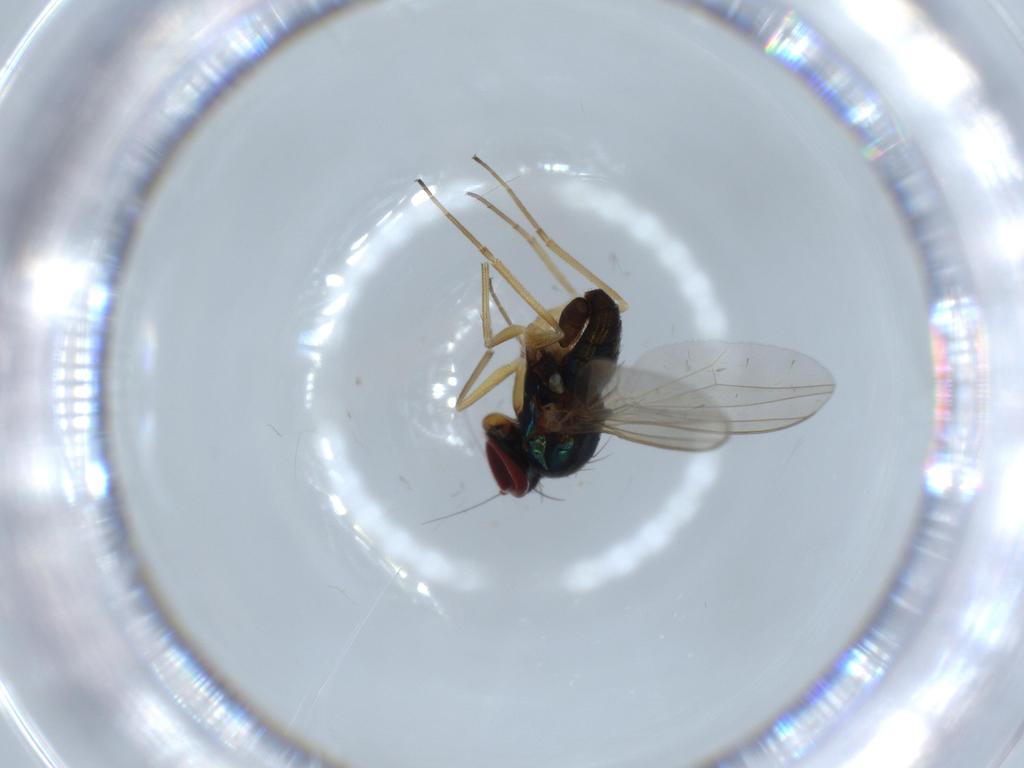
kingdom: Animalia
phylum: Arthropoda
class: Insecta
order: Diptera
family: Dolichopodidae
